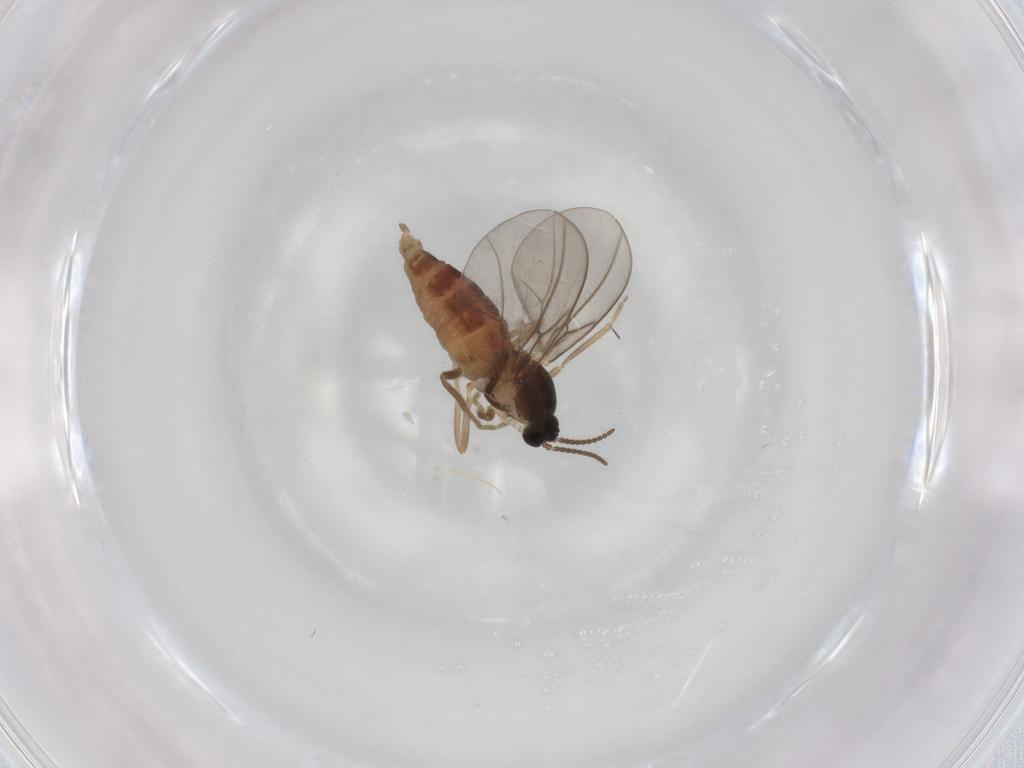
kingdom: Animalia
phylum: Arthropoda
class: Insecta
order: Diptera
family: Cecidomyiidae
